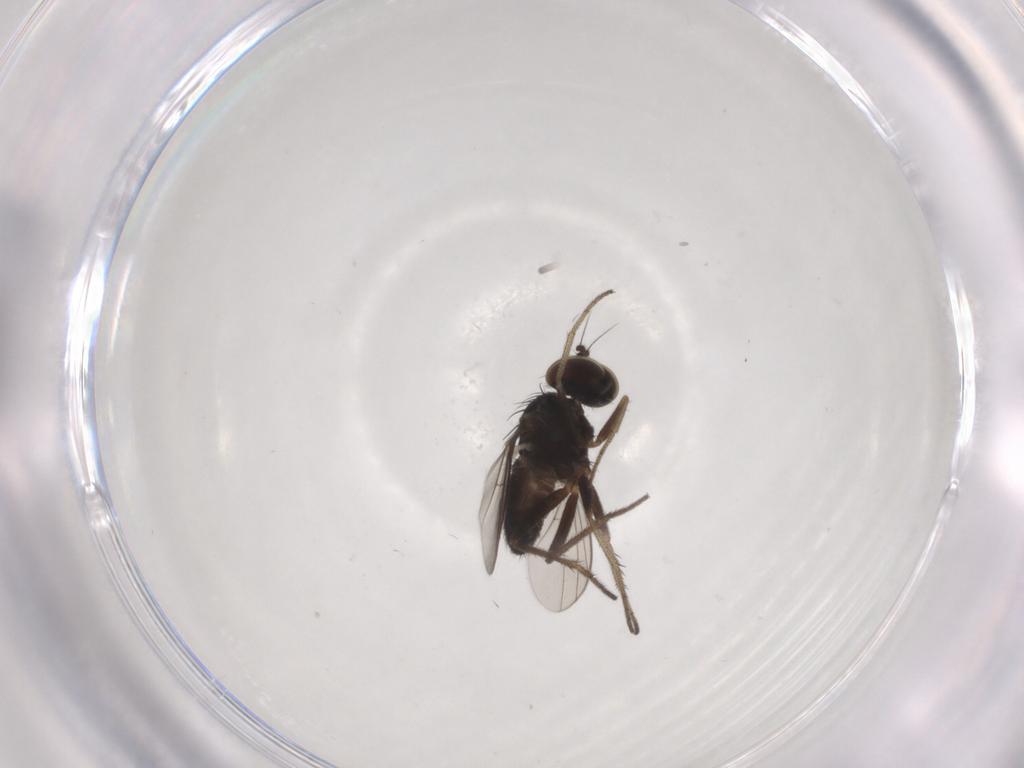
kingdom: Animalia
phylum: Arthropoda
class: Insecta
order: Diptera
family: Dolichopodidae
